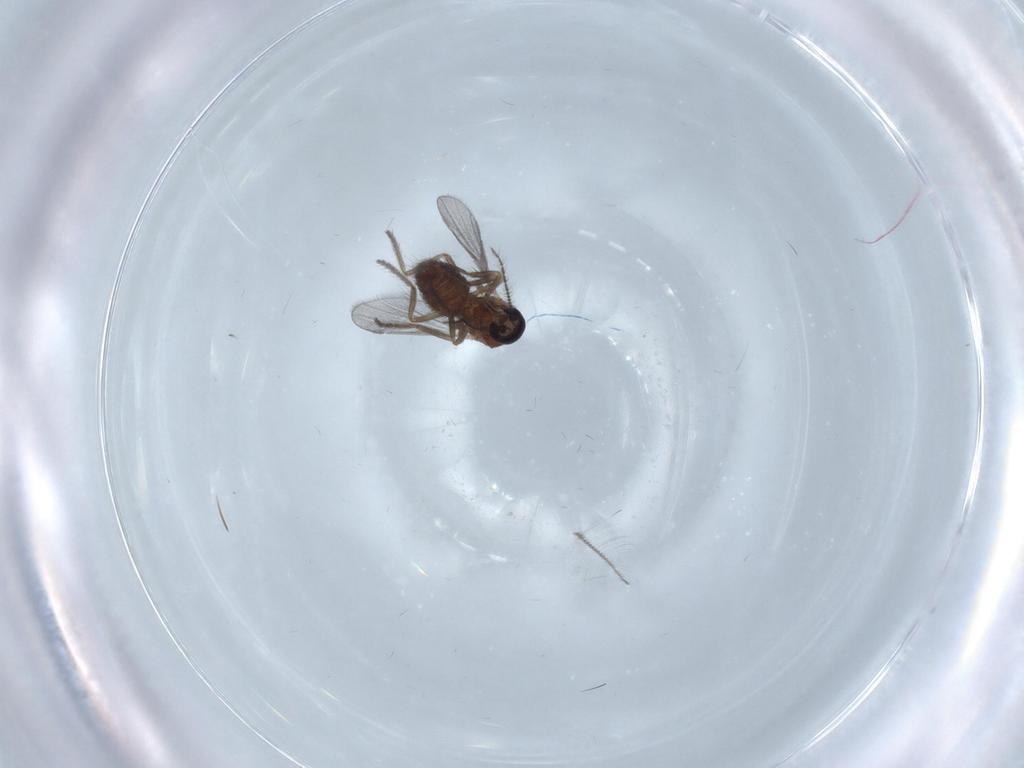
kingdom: Animalia
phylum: Arthropoda
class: Insecta
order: Diptera
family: Ceratopogonidae
